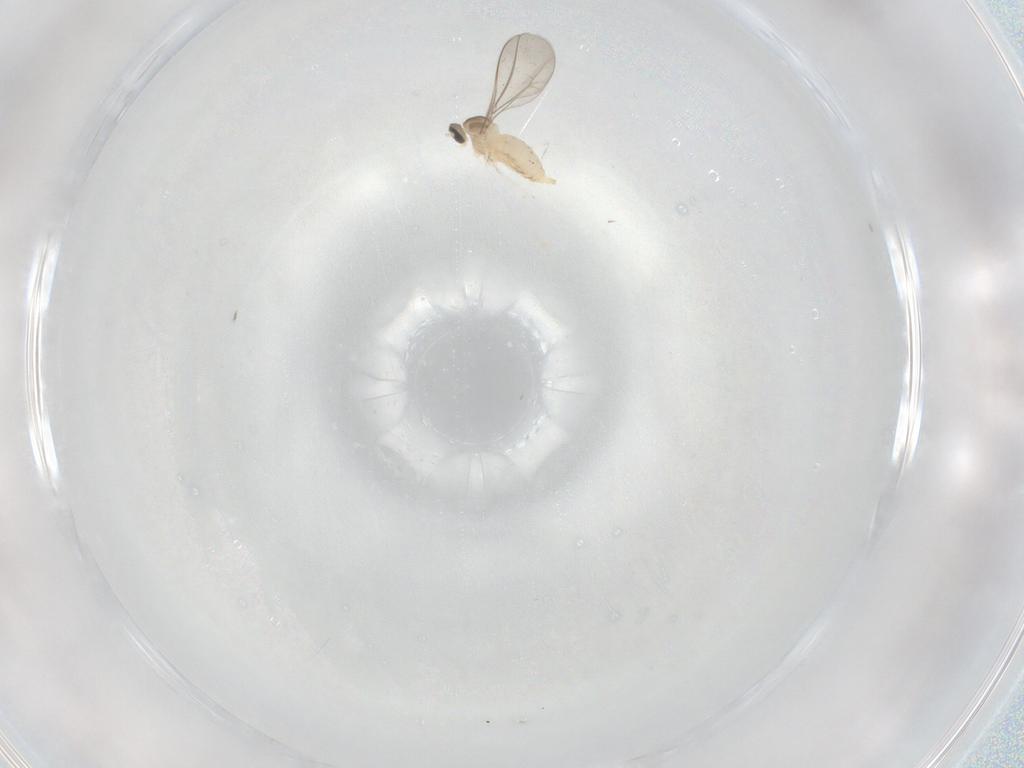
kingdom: Animalia
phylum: Arthropoda
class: Insecta
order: Diptera
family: Cecidomyiidae
